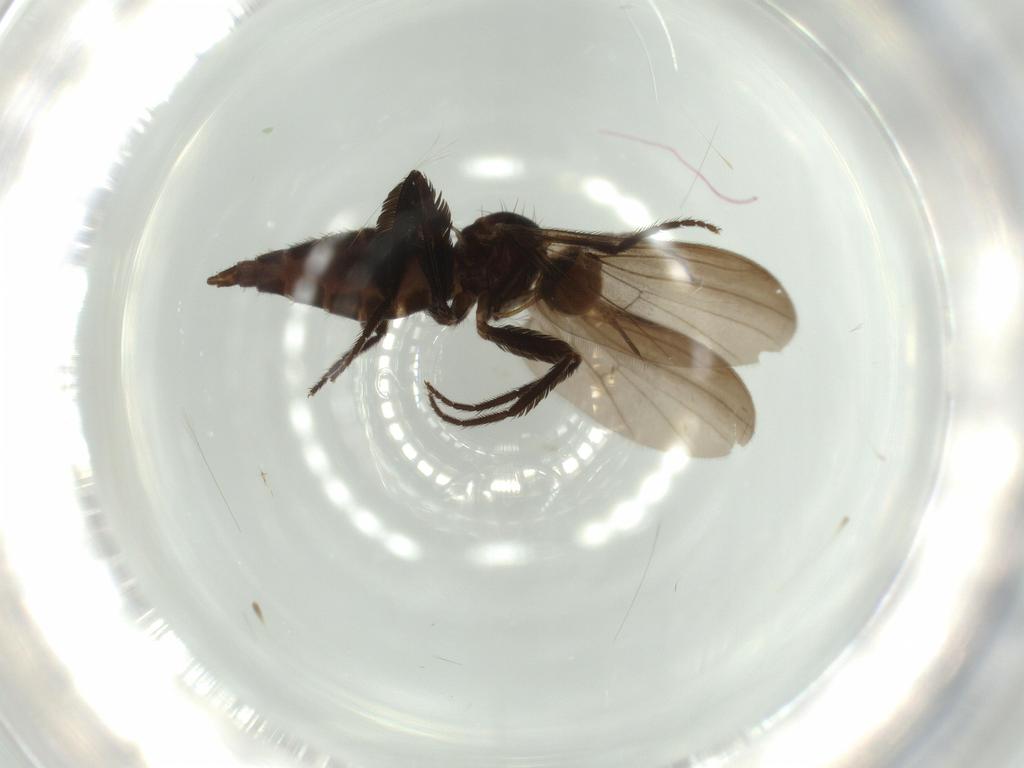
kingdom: Animalia
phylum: Arthropoda
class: Insecta
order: Diptera
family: Empididae
